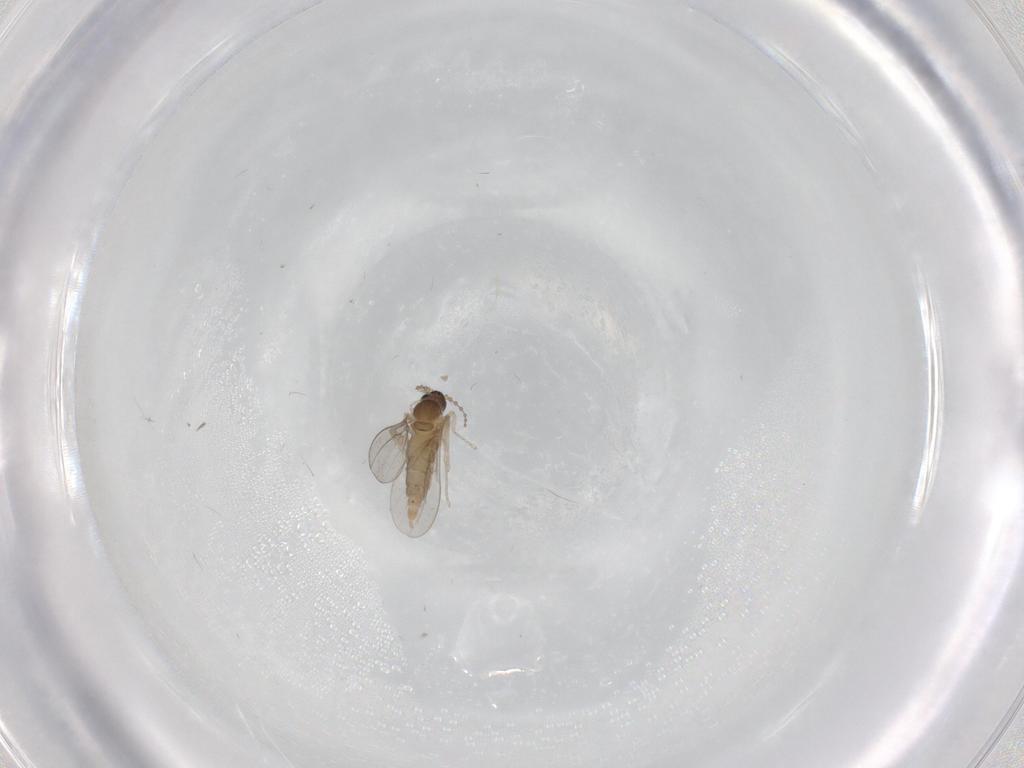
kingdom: Animalia
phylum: Arthropoda
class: Insecta
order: Diptera
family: Cecidomyiidae
